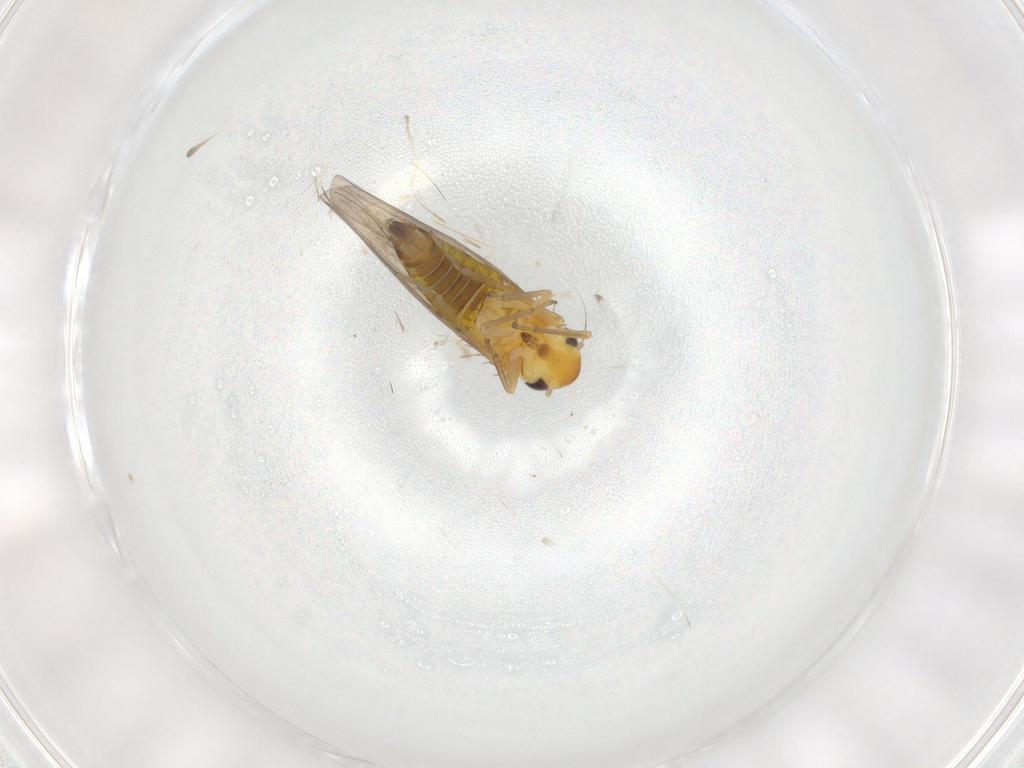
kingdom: Animalia
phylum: Arthropoda
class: Insecta
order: Hemiptera
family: Cicadellidae
